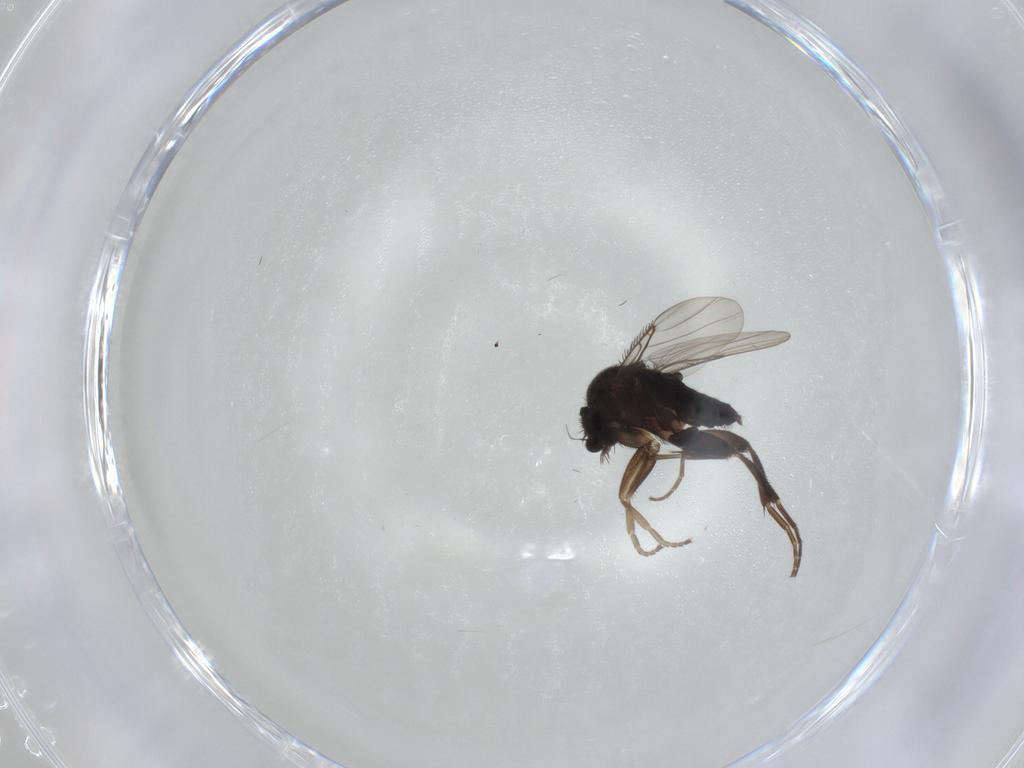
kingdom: Animalia
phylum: Arthropoda
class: Insecta
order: Diptera
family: Phoridae
